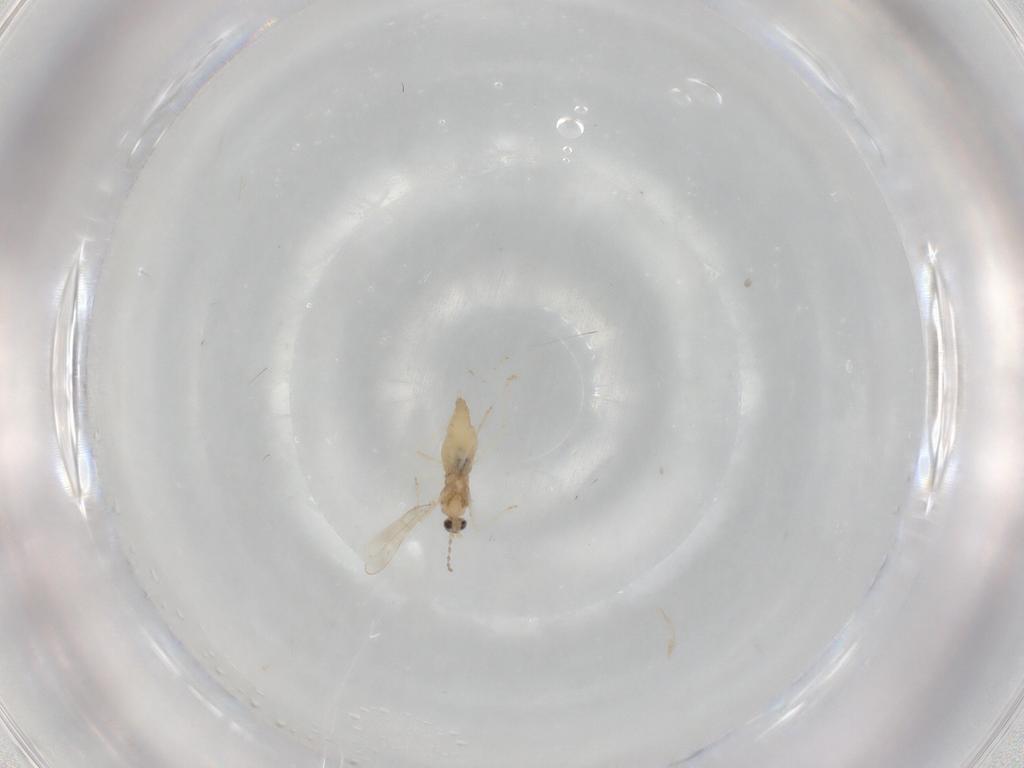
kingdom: Animalia
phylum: Arthropoda
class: Insecta
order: Diptera
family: Cecidomyiidae
